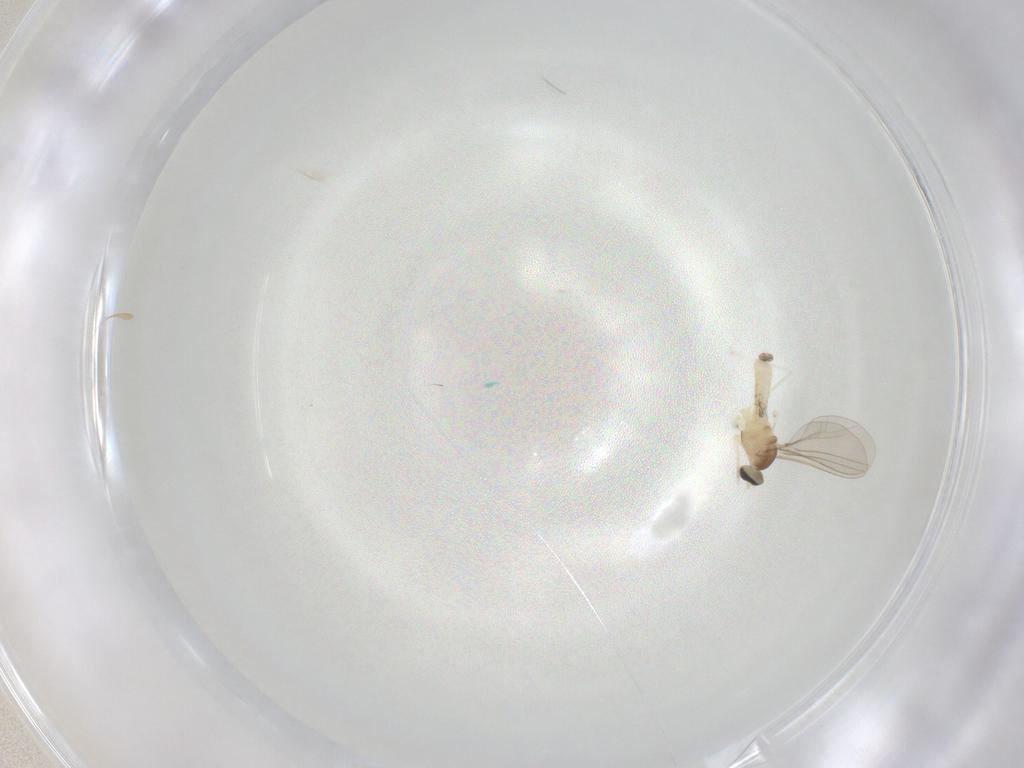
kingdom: Animalia
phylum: Arthropoda
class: Insecta
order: Diptera
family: Cecidomyiidae
